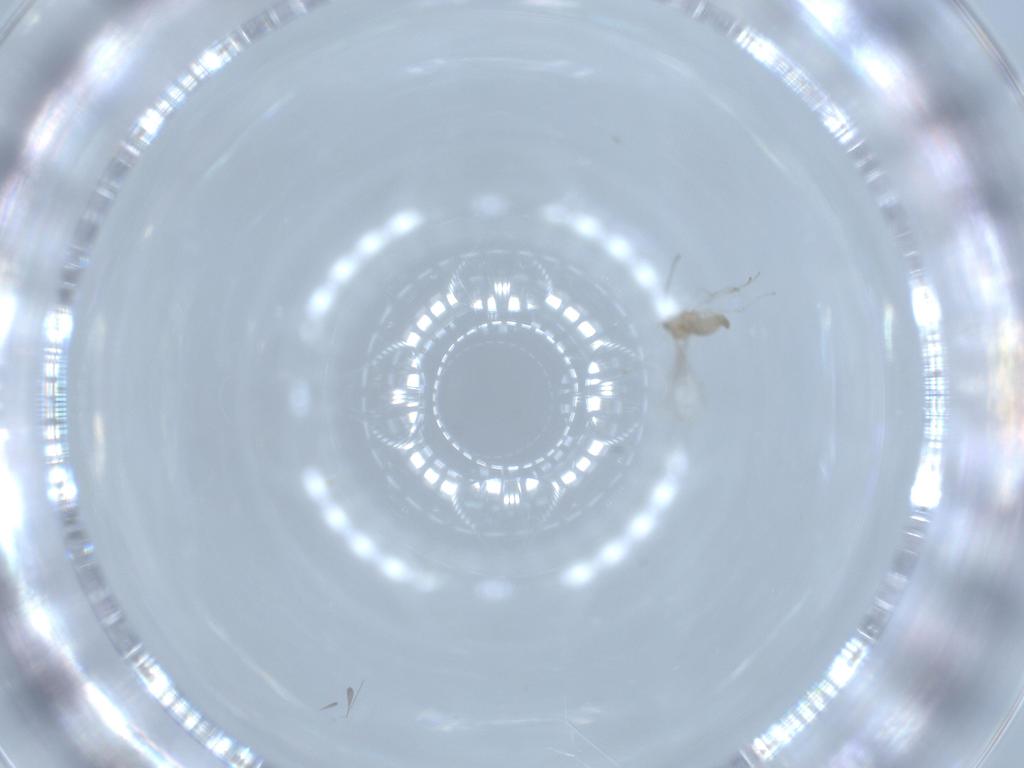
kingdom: Animalia
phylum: Arthropoda
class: Insecta
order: Diptera
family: Cecidomyiidae
